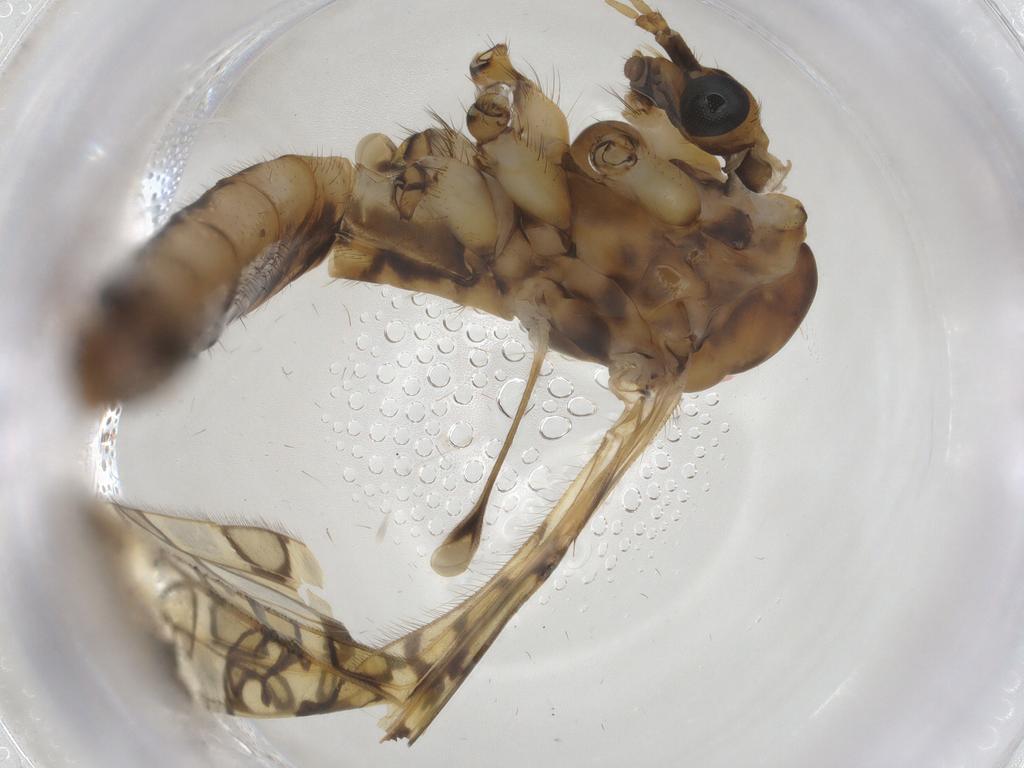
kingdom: Animalia
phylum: Arthropoda
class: Insecta
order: Diptera
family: Limoniidae
